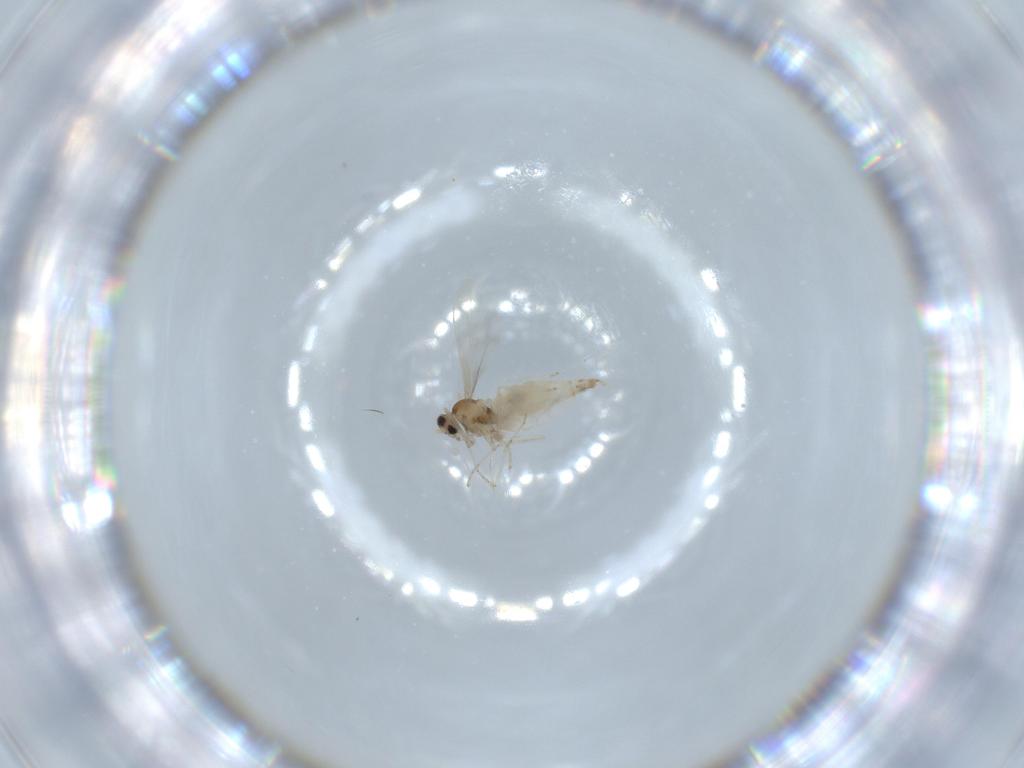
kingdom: Animalia
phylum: Arthropoda
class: Insecta
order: Diptera
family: Cecidomyiidae
